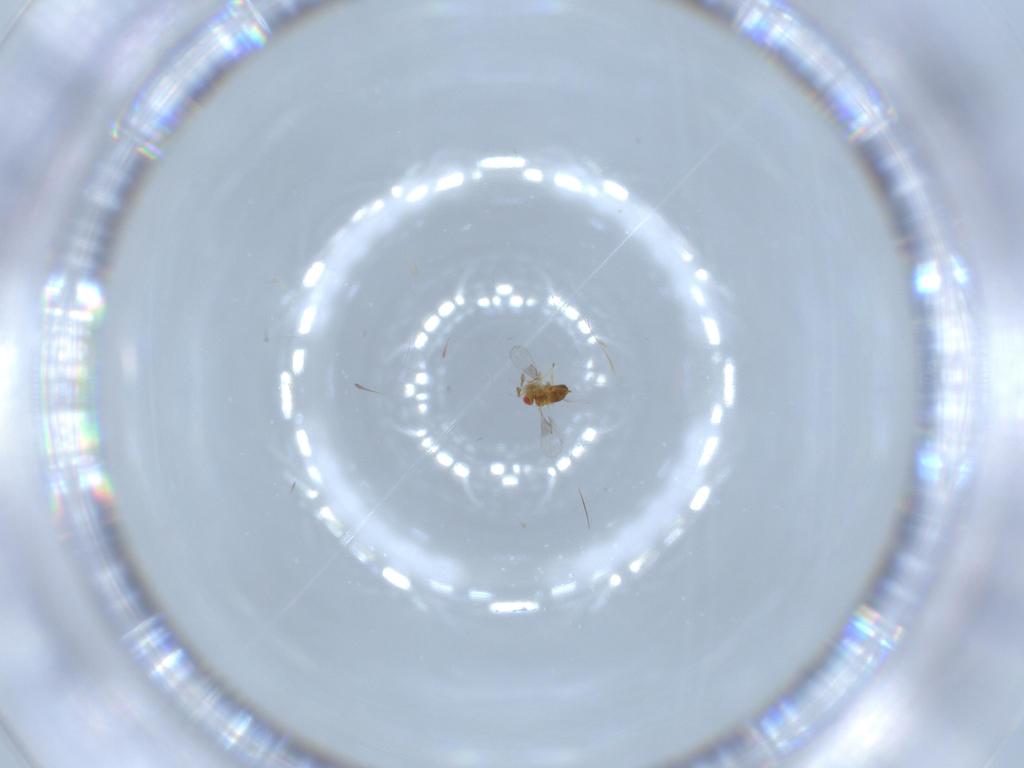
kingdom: Animalia
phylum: Arthropoda
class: Insecta
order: Hymenoptera
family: Trichogrammatidae
